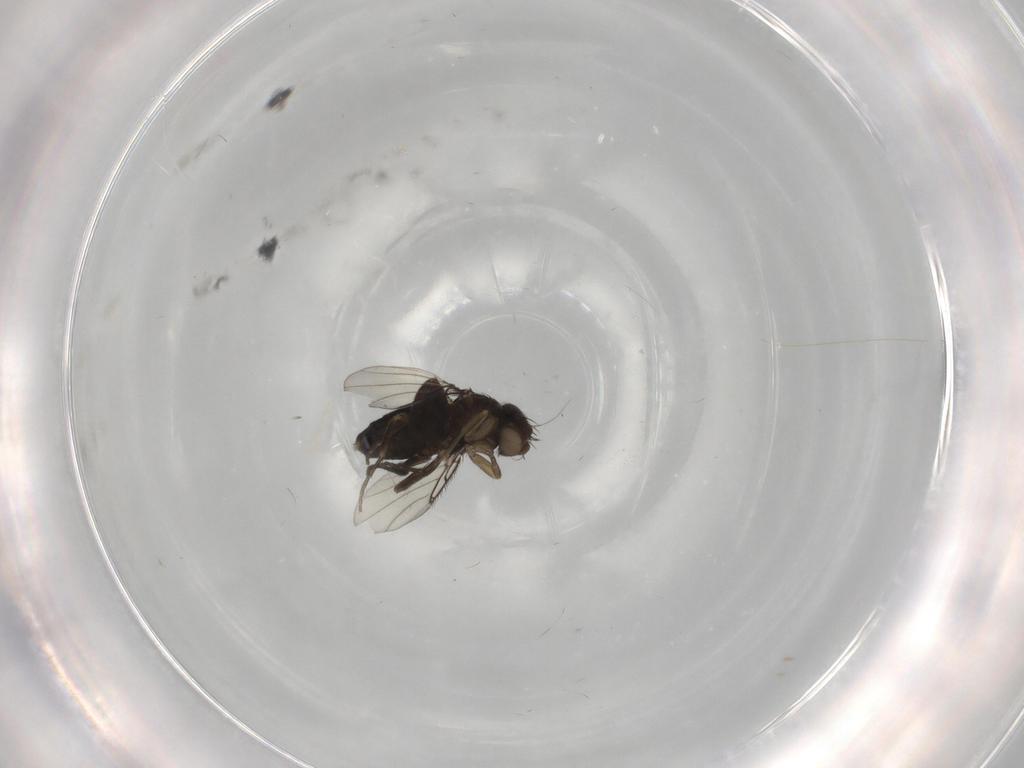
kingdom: Animalia
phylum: Arthropoda
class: Insecta
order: Diptera
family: Phoridae
